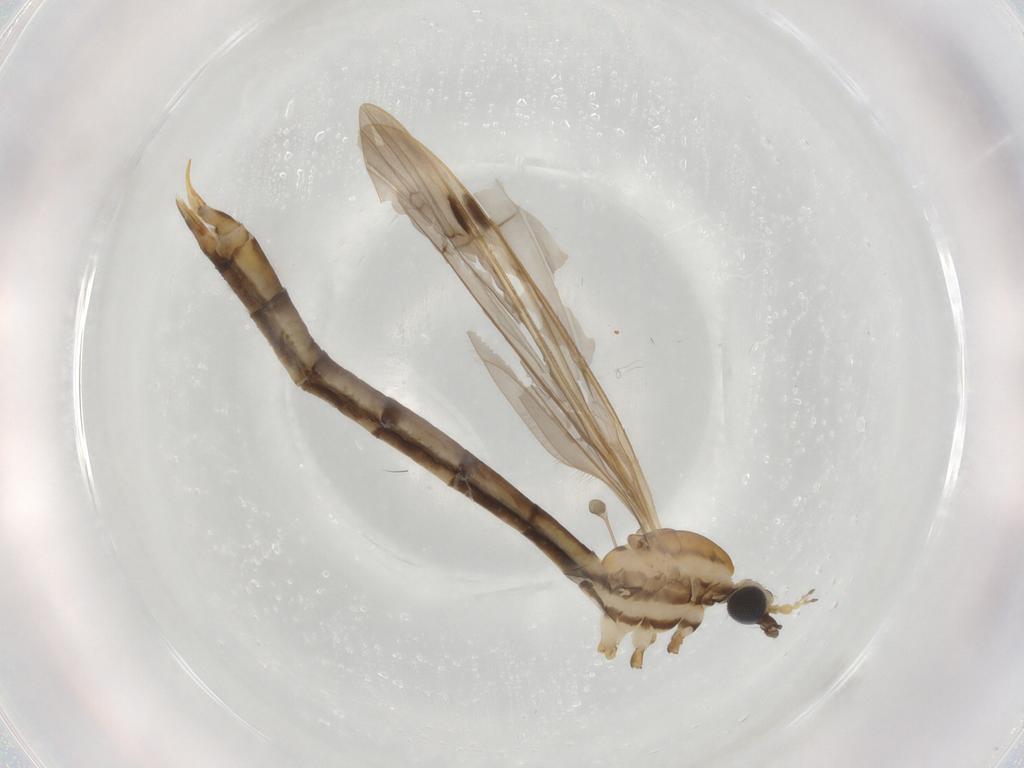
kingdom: Animalia
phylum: Arthropoda
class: Insecta
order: Diptera
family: Limoniidae
